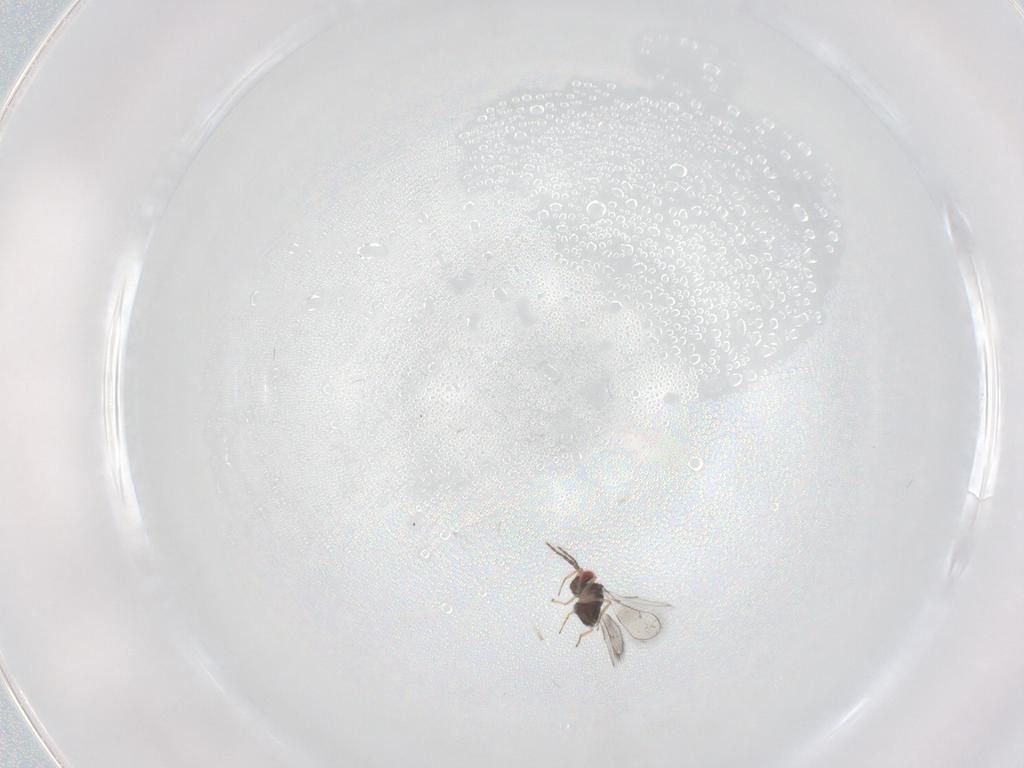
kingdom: Animalia
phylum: Arthropoda
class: Insecta
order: Hymenoptera
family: Eulophidae
